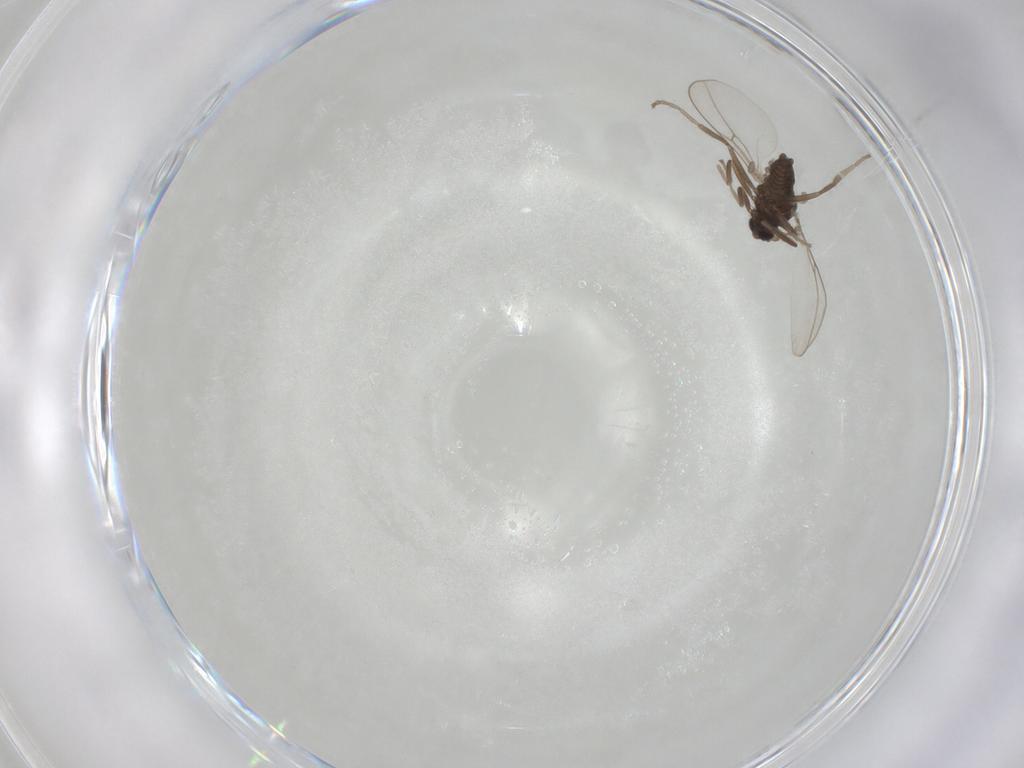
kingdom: Animalia
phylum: Arthropoda
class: Insecta
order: Diptera
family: Cecidomyiidae
